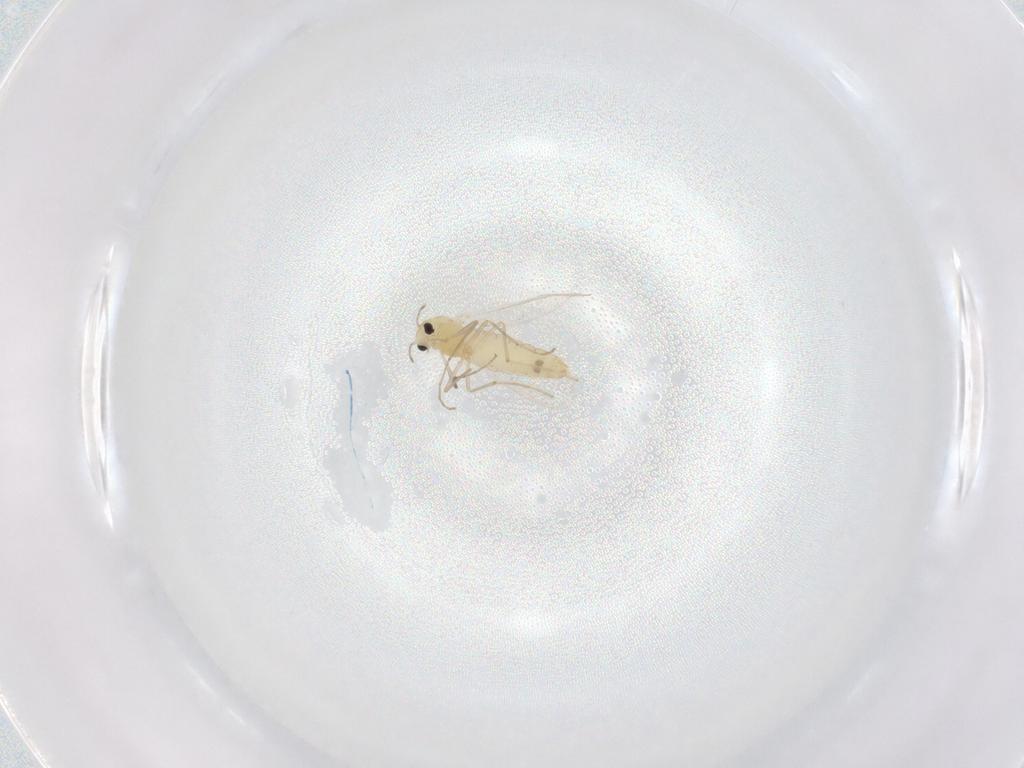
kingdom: Animalia
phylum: Arthropoda
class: Insecta
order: Diptera
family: Chironomidae
